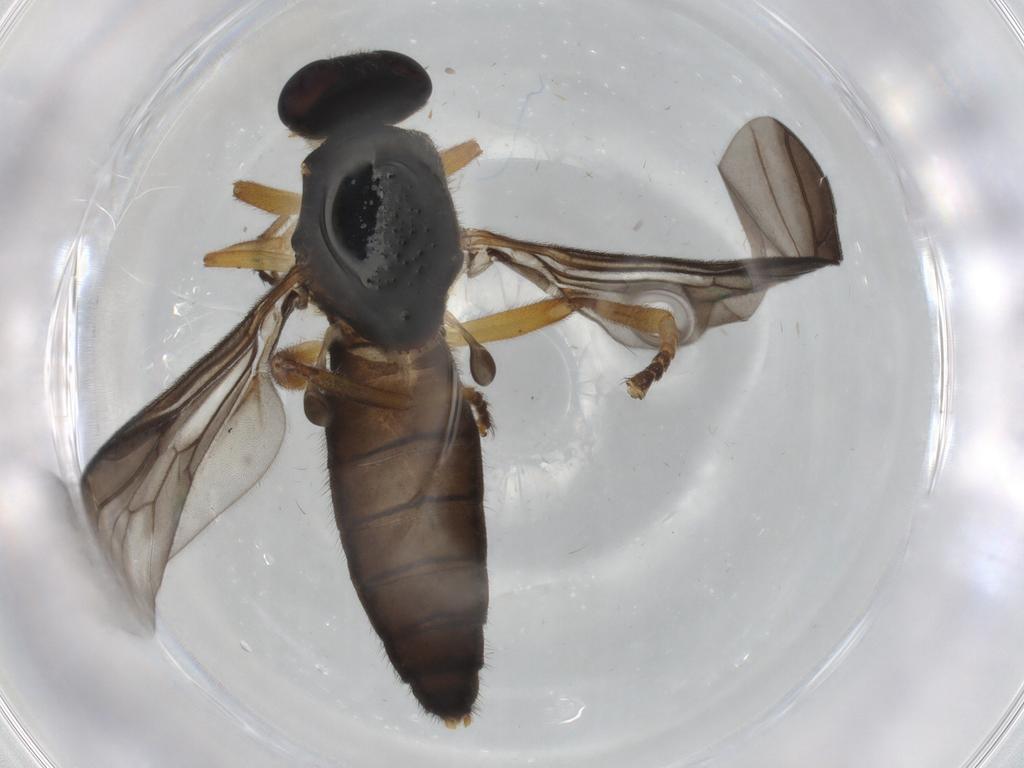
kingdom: Animalia
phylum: Arthropoda
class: Insecta
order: Diptera
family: Stratiomyidae
